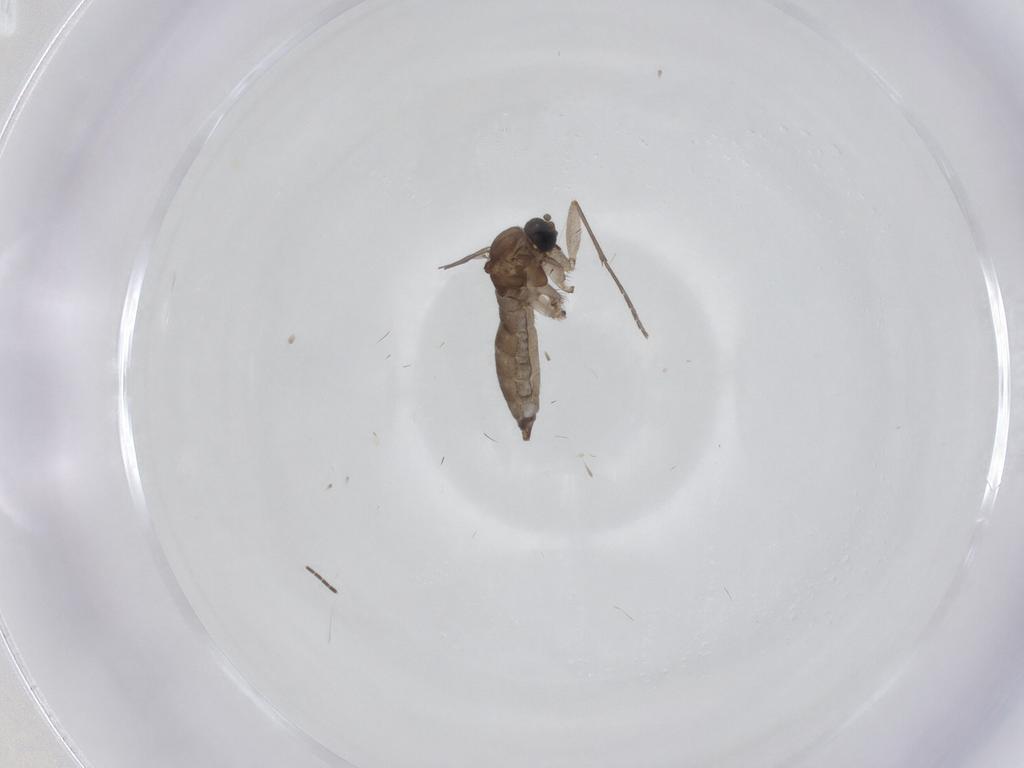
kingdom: Animalia
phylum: Arthropoda
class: Insecta
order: Diptera
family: Sciaridae
